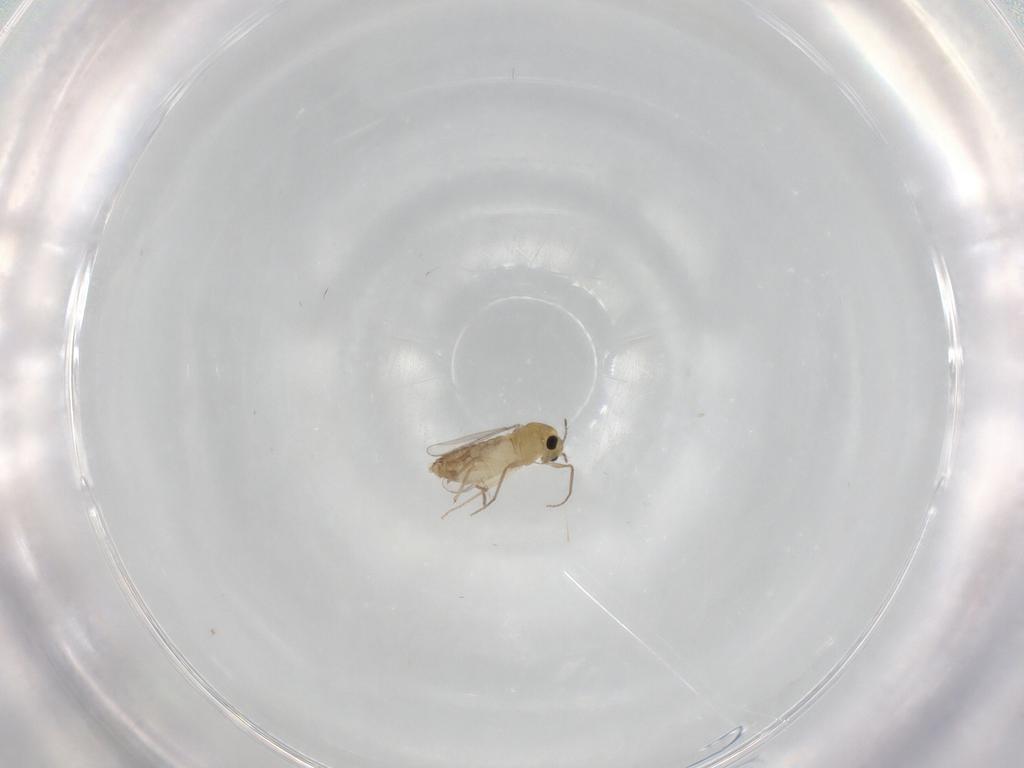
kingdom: Animalia
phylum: Arthropoda
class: Insecta
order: Diptera
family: Chironomidae
